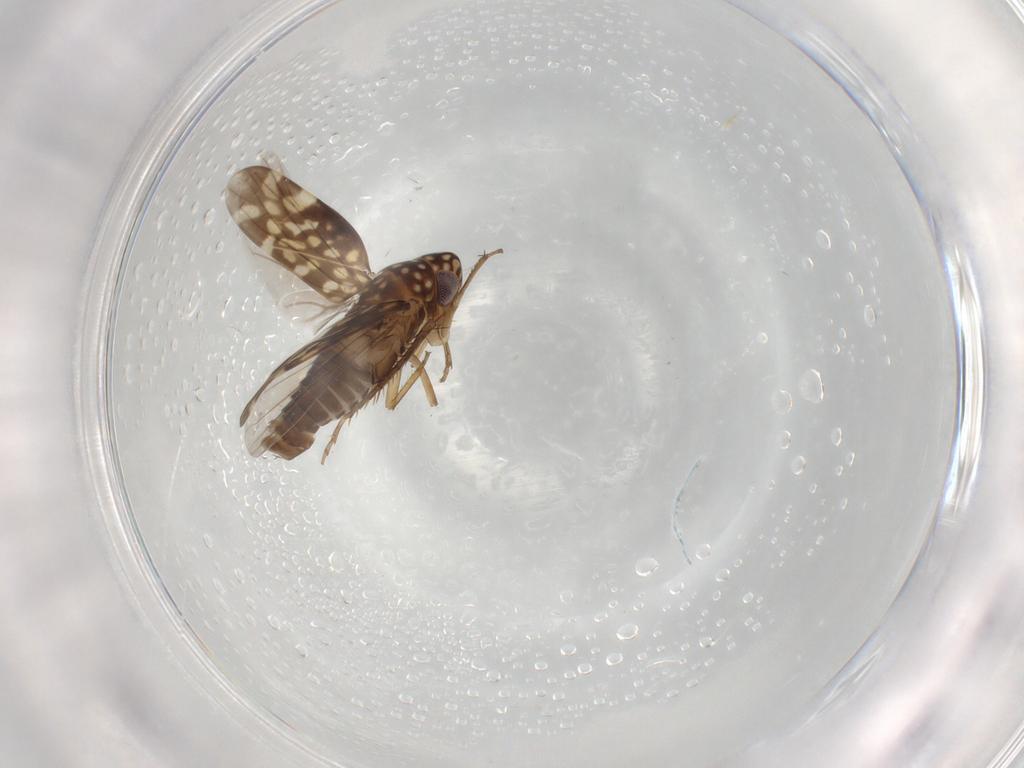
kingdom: Animalia
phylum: Arthropoda
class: Insecta
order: Hemiptera
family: Cicadellidae
